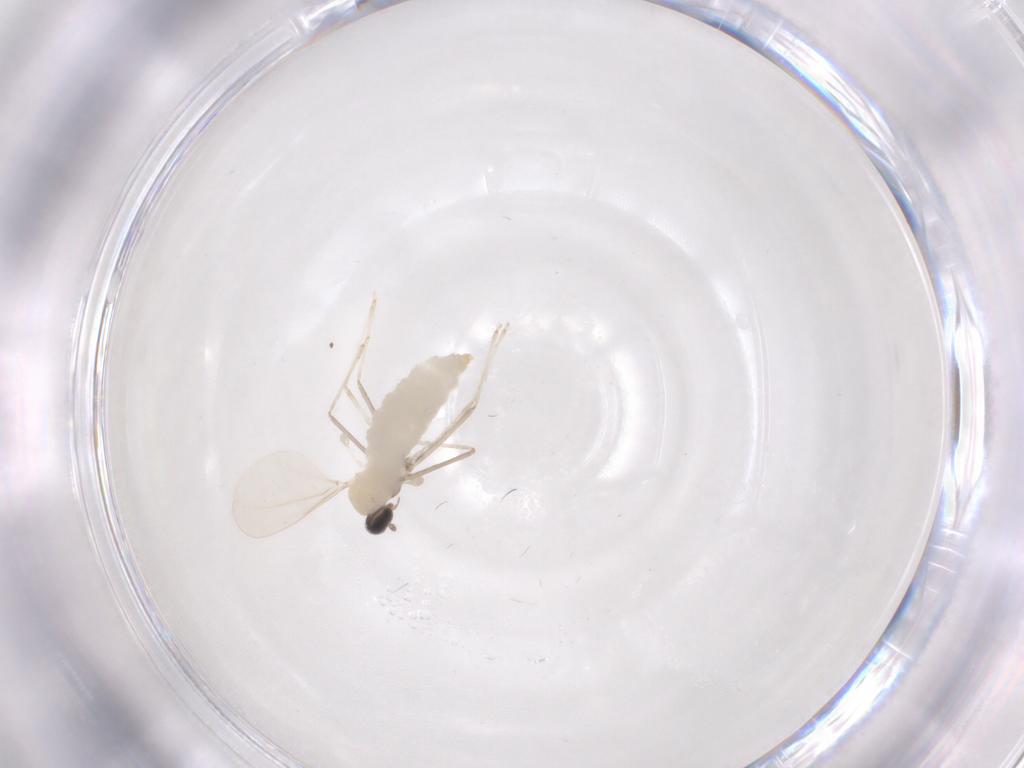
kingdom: Animalia
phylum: Arthropoda
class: Insecta
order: Diptera
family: Cecidomyiidae
